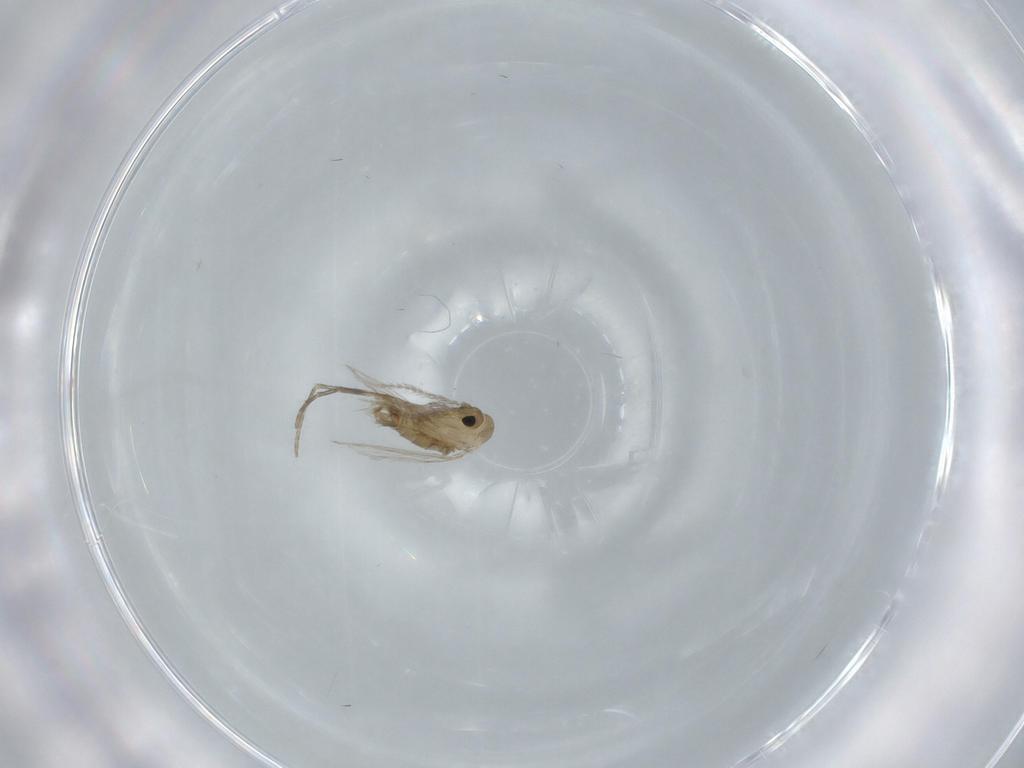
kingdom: Animalia
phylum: Arthropoda
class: Insecta
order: Diptera
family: Psychodidae
